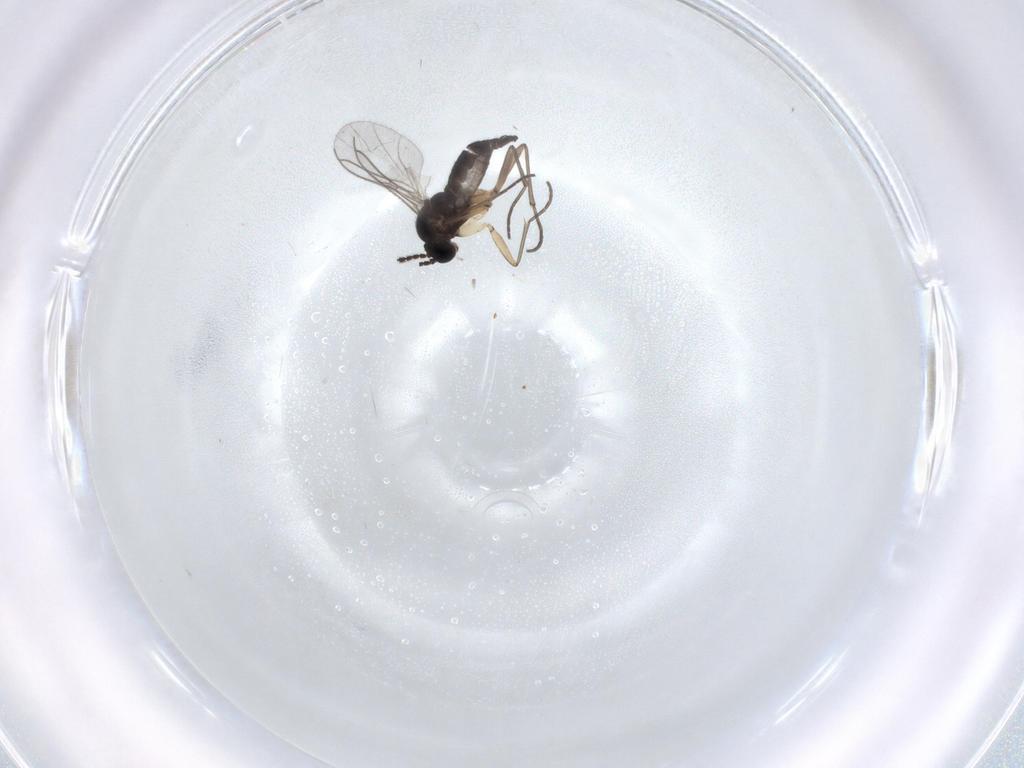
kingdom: Animalia
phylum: Arthropoda
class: Insecta
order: Diptera
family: Sciaridae
